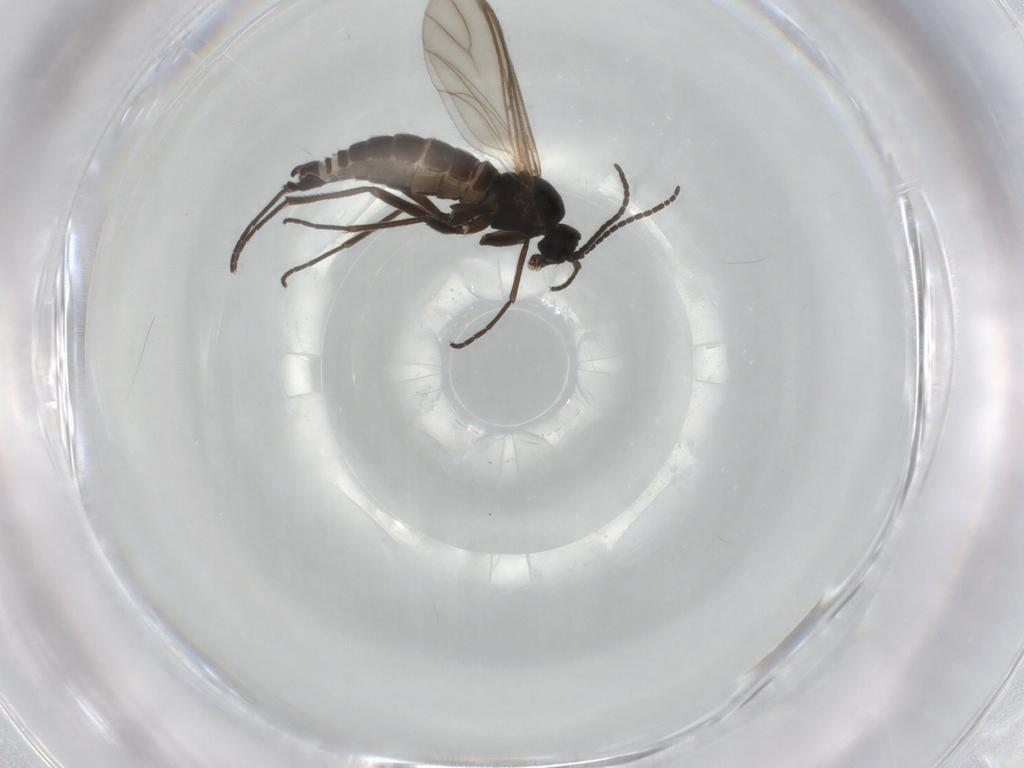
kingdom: Animalia
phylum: Arthropoda
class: Insecta
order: Diptera
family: Sciaridae
